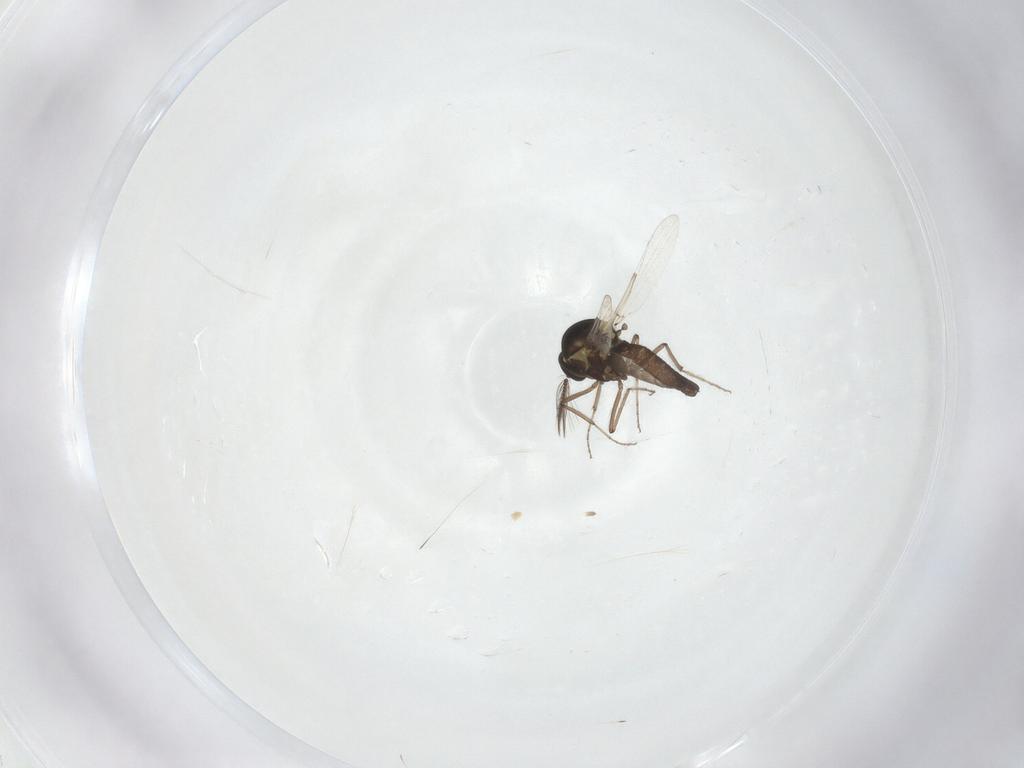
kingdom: Animalia
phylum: Arthropoda
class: Insecta
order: Diptera
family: Ceratopogonidae
